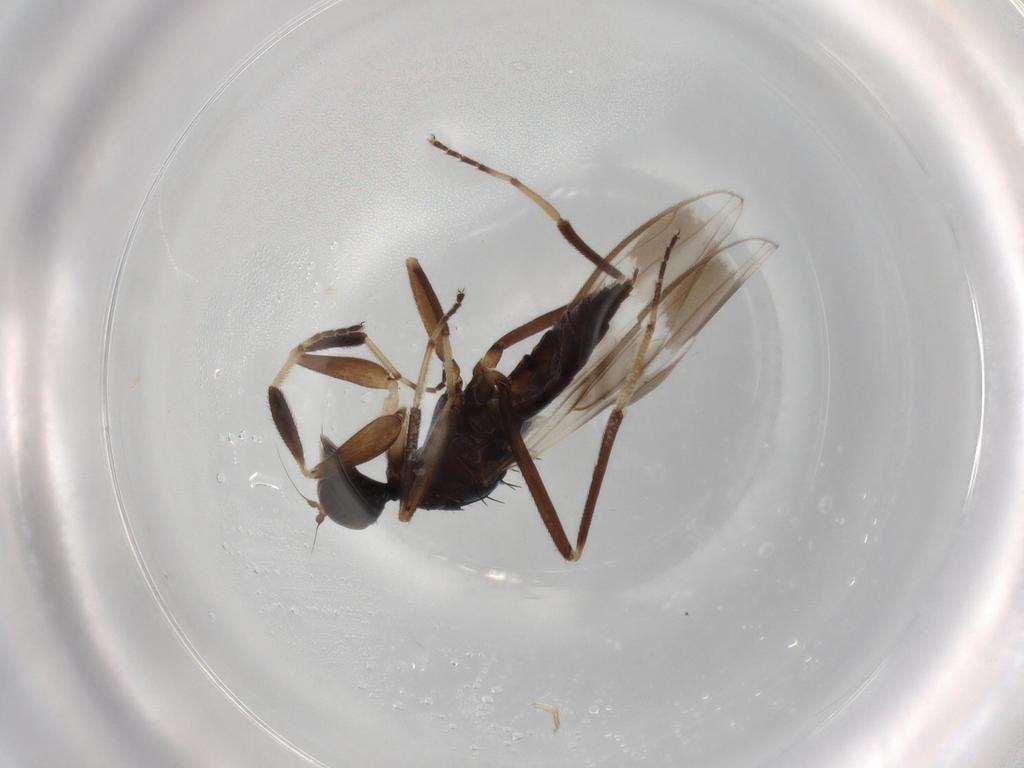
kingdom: Animalia
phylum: Arthropoda
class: Insecta
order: Diptera
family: Hybotidae
